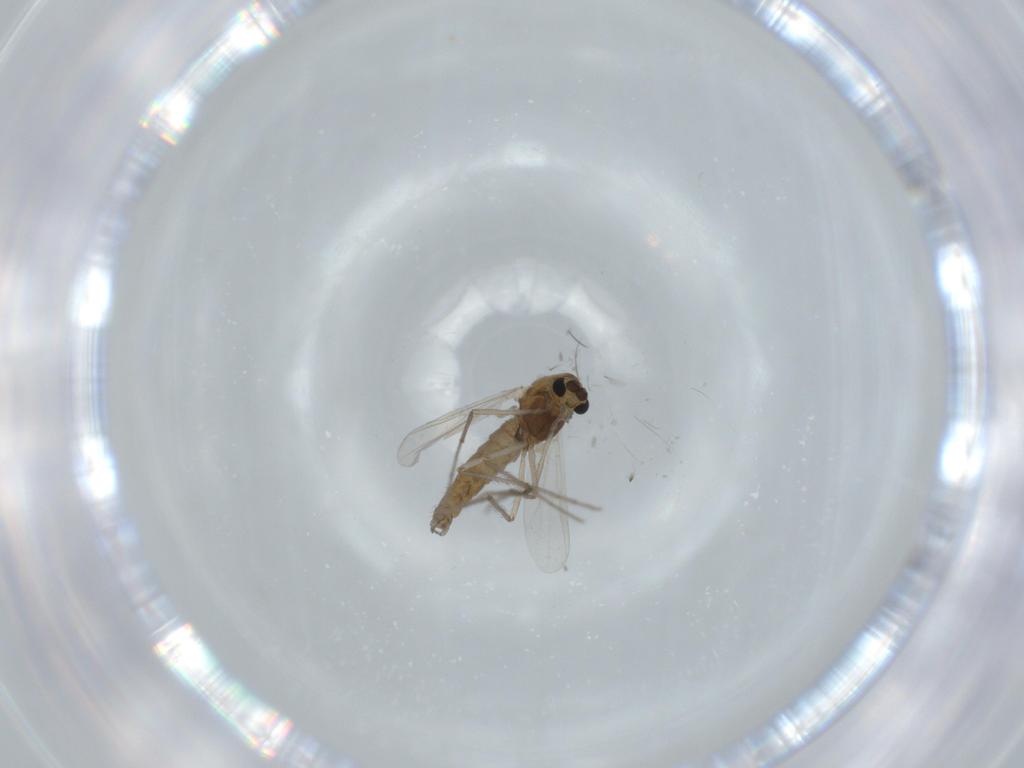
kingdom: Animalia
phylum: Arthropoda
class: Insecta
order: Diptera
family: Chironomidae
